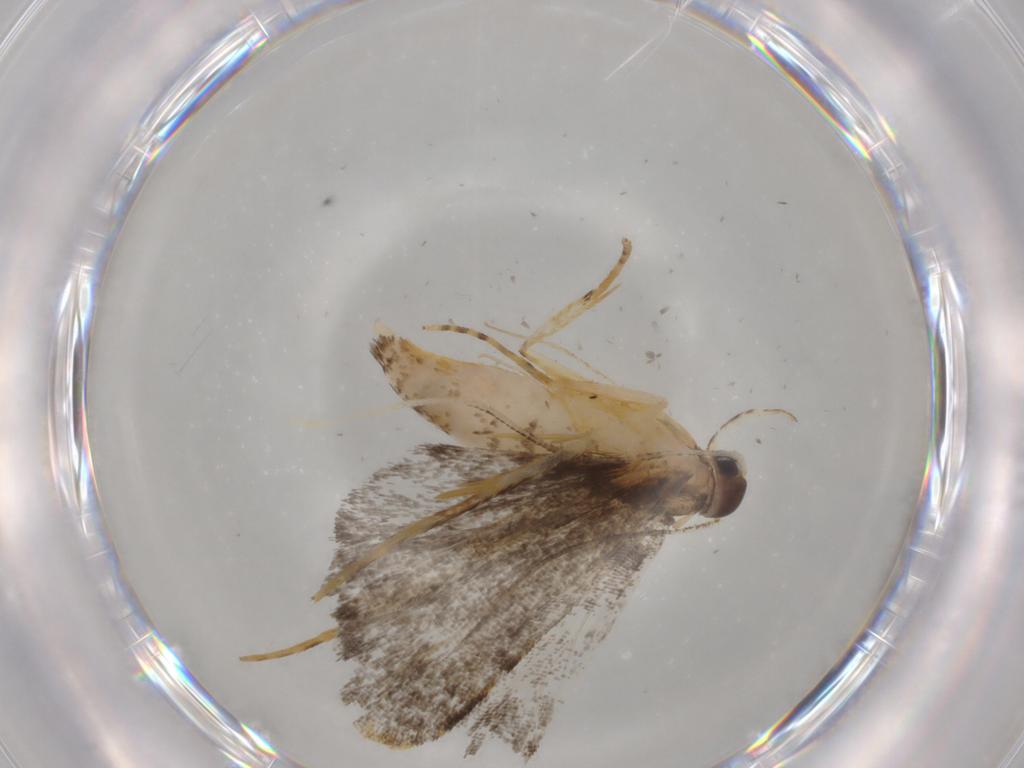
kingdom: Animalia
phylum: Arthropoda
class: Insecta
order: Lepidoptera
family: Cosmopterigidae
